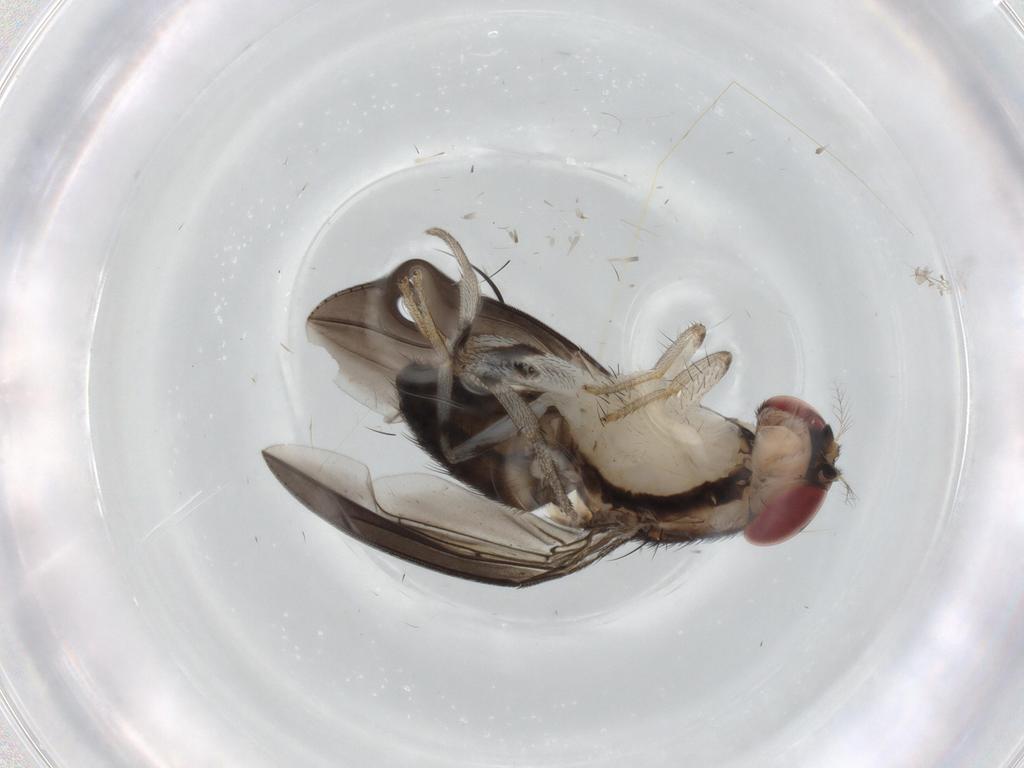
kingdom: Animalia
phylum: Arthropoda
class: Insecta
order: Diptera
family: Drosophilidae
